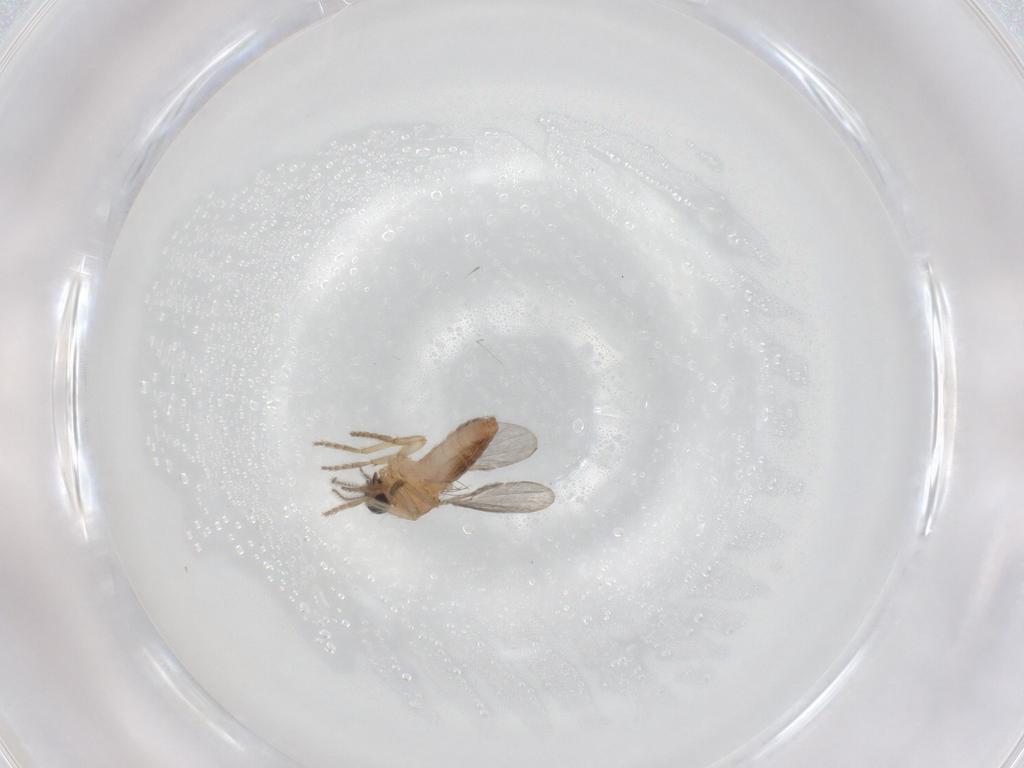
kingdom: Animalia
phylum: Arthropoda
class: Insecta
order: Diptera
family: Ceratopogonidae
